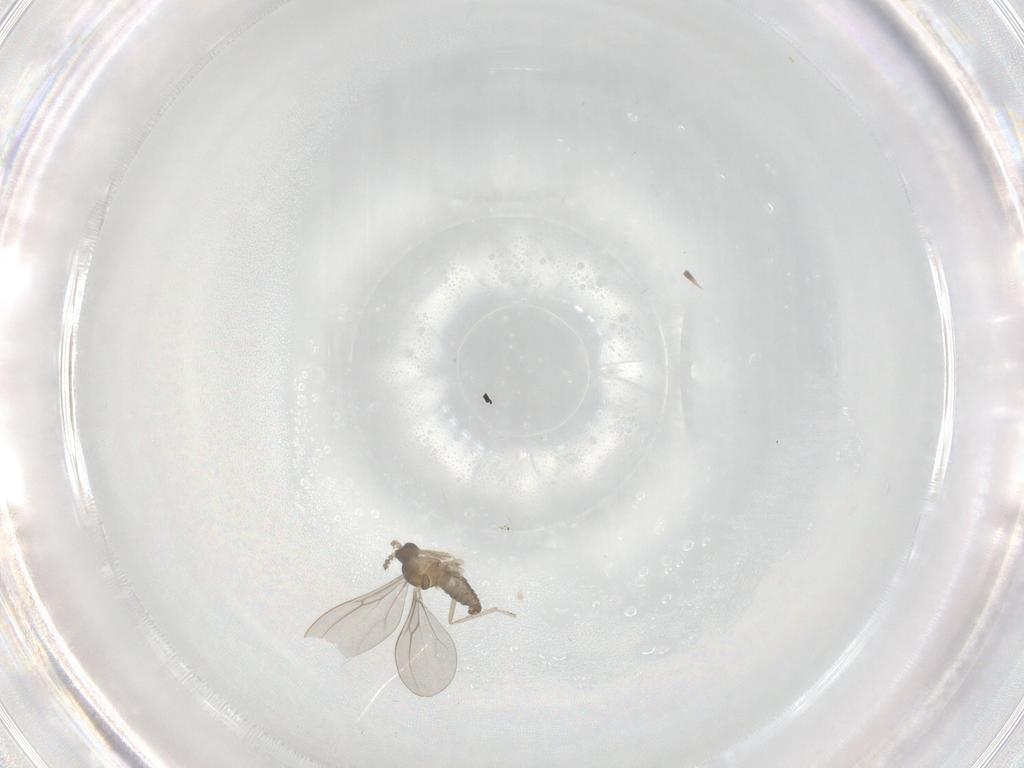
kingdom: Animalia
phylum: Arthropoda
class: Insecta
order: Diptera
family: Cecidomyiidae
